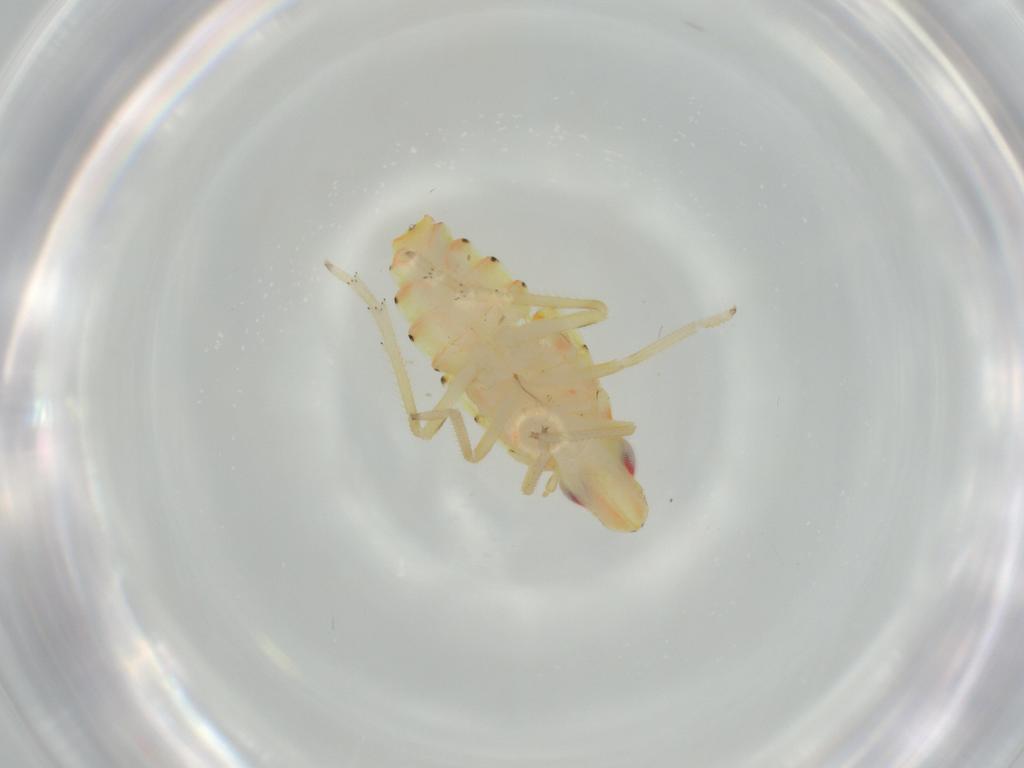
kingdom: Animalia
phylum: Arthropoda
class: Insecta
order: Hemiptera
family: Tropiduchidae
